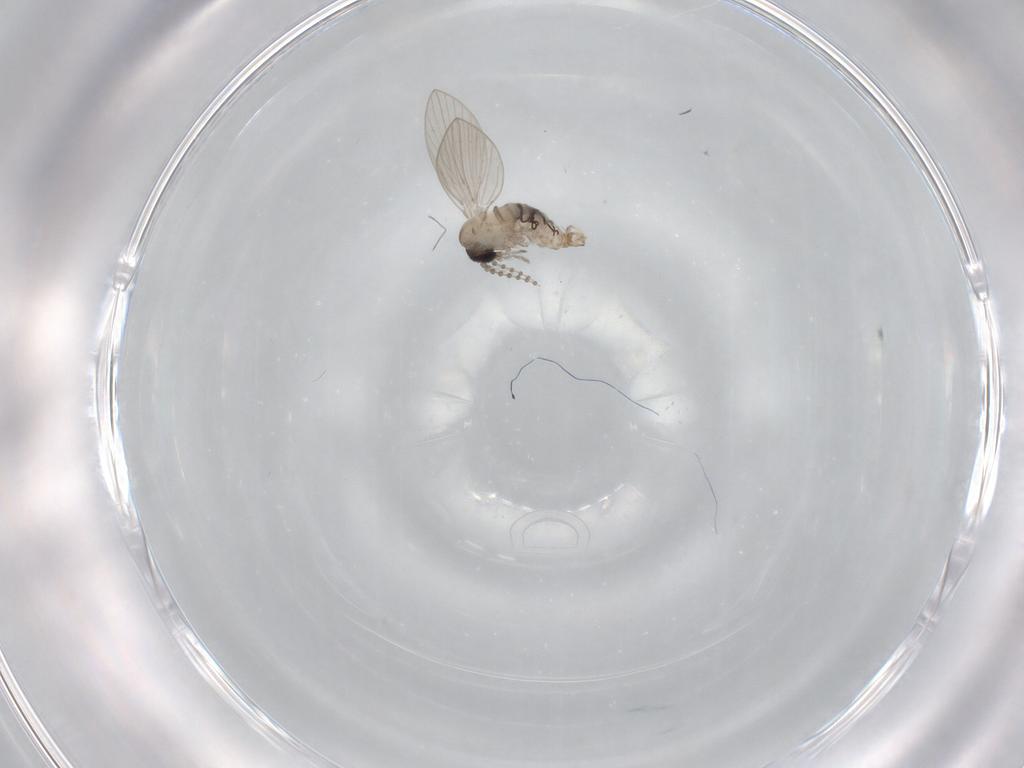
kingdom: Animalia
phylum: Arthropoda
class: Insecta
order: Diptera
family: Psychodidae
